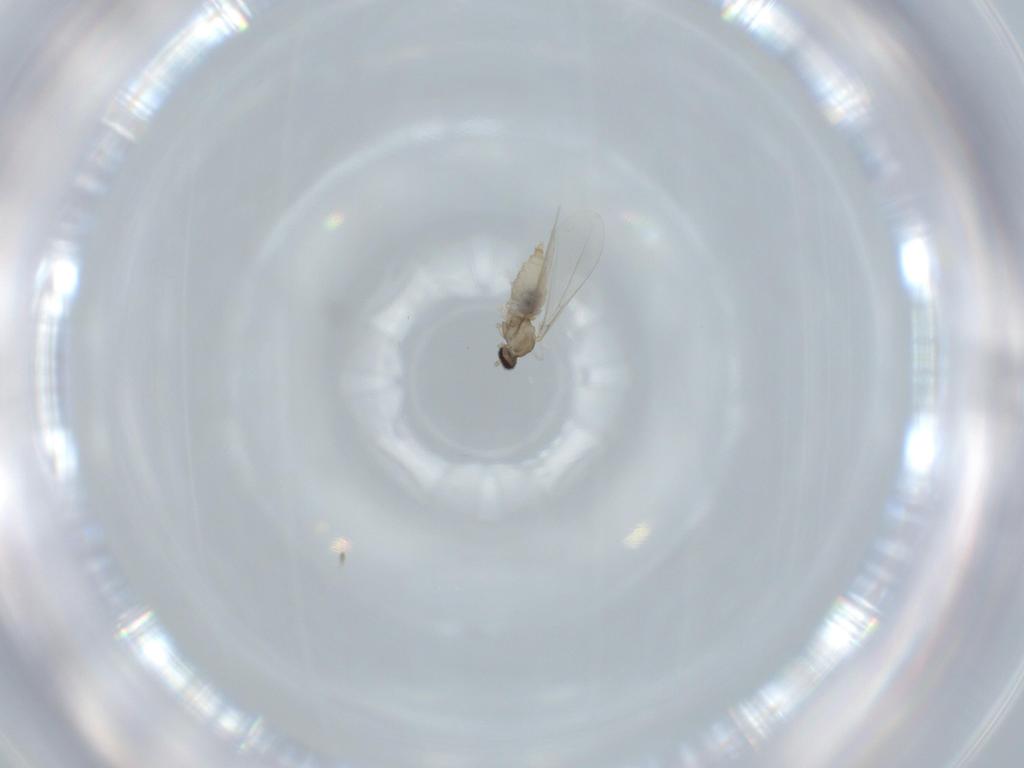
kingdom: Animalia
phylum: Arthropoda
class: Insecta
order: Diptera
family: Cecidomyiidae
